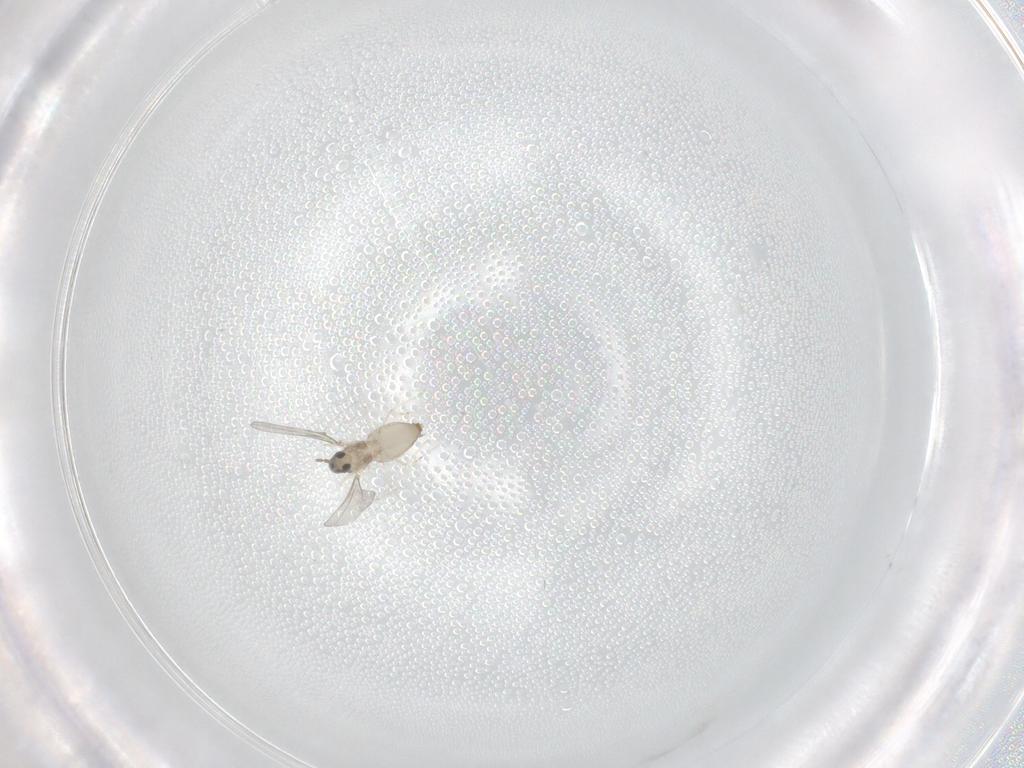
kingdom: Animalia
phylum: Arthropoda
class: Insecta
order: Diptera
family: Cecidomyiidae
